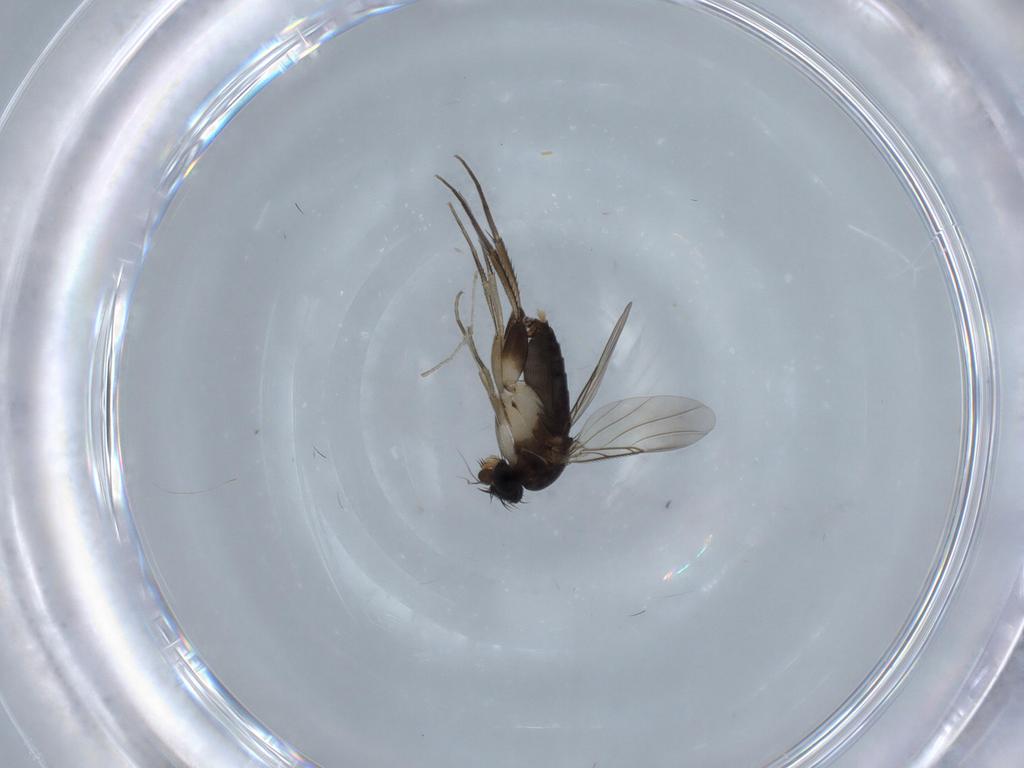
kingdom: Animalia
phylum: Arthropoda
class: Insecta
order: Diptera
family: Phoridae
